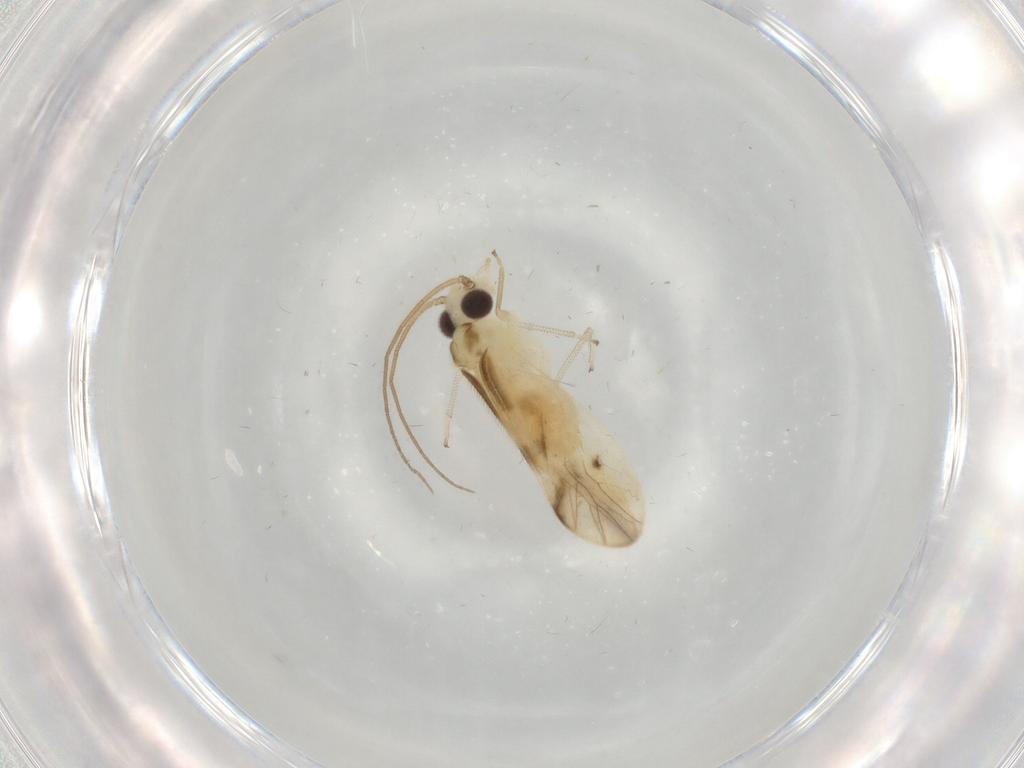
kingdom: Animalia
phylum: Arthropoda
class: Insecta
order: Psocodea
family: Caeciliusidae
